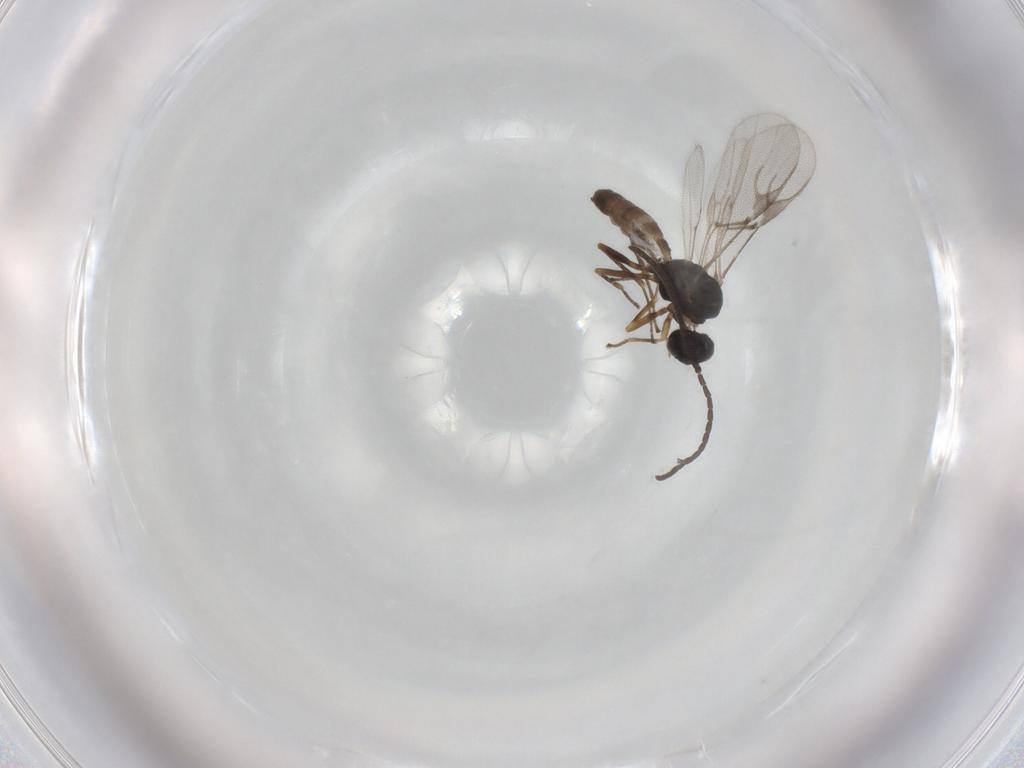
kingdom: Animalia
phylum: Arthropoda
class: Insecta
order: Hymenoptera
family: Braconidae
